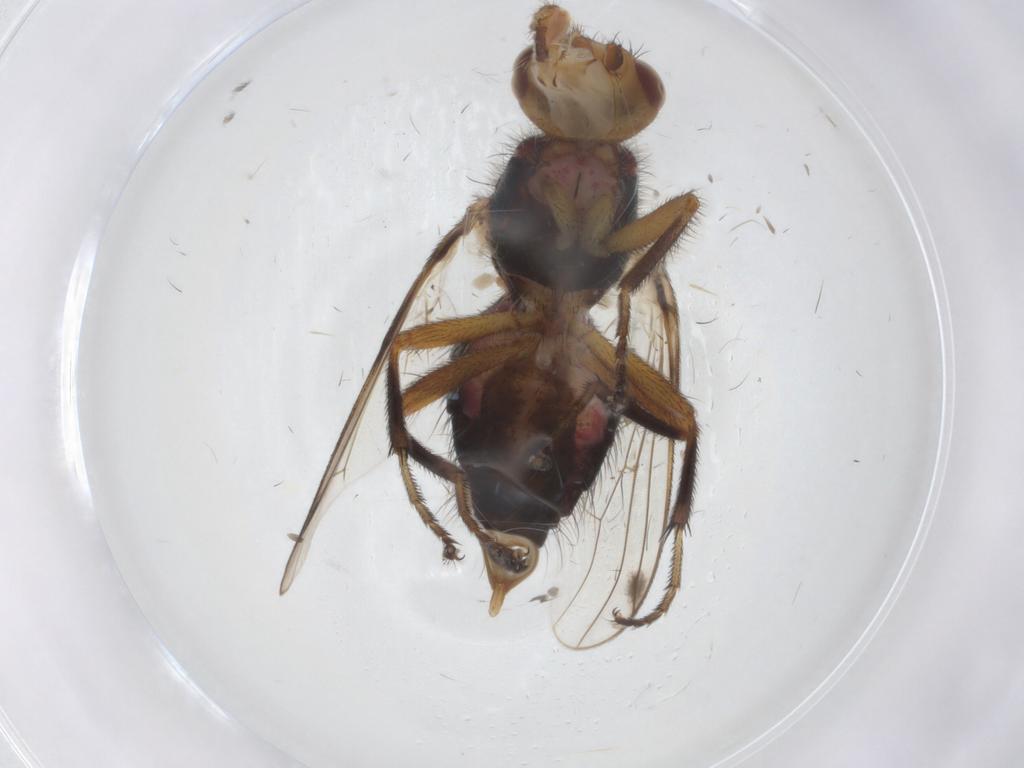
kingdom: Animalia
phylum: Arthropoda
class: Insecta
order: Diptera
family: Richardiidae
